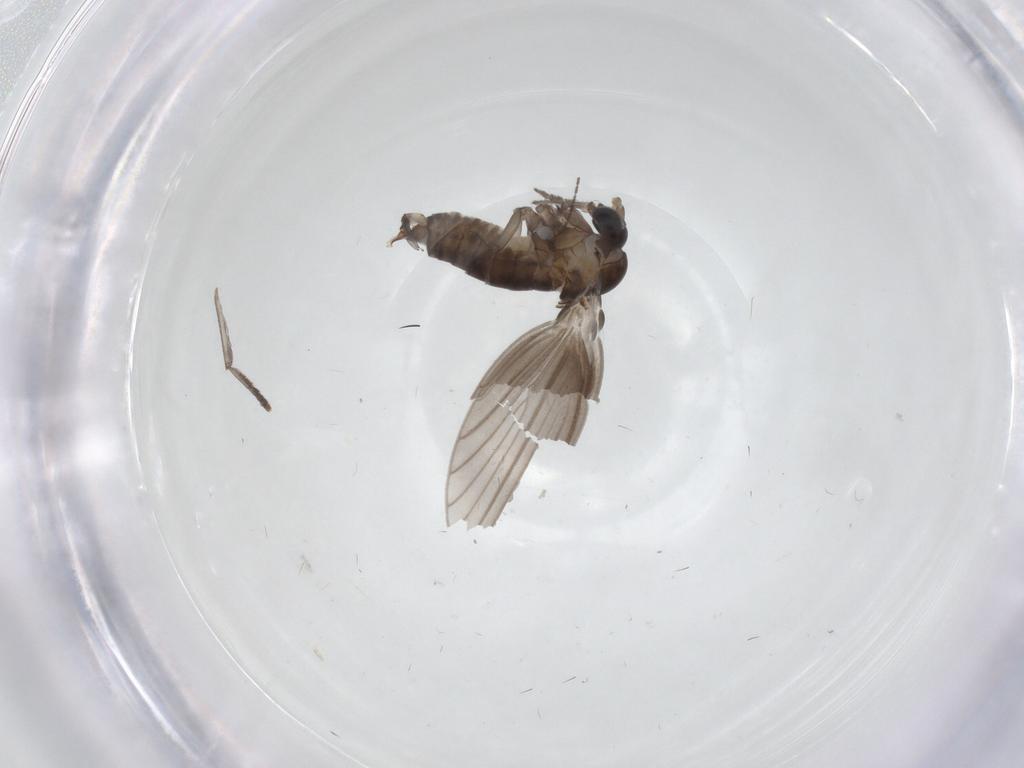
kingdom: Animalia
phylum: Arthropoda
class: Insecta
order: Diptera
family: Psychodidae
